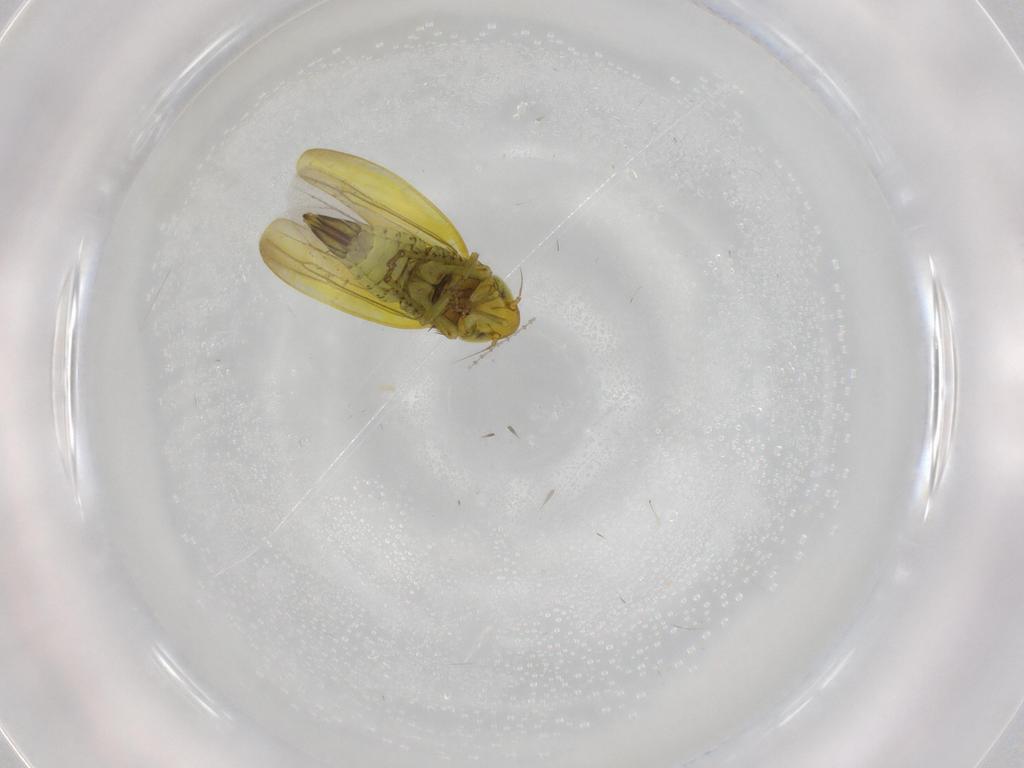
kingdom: Animalia
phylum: Arthropoda
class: Insecta
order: Hemiptera
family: Cicadellidae
